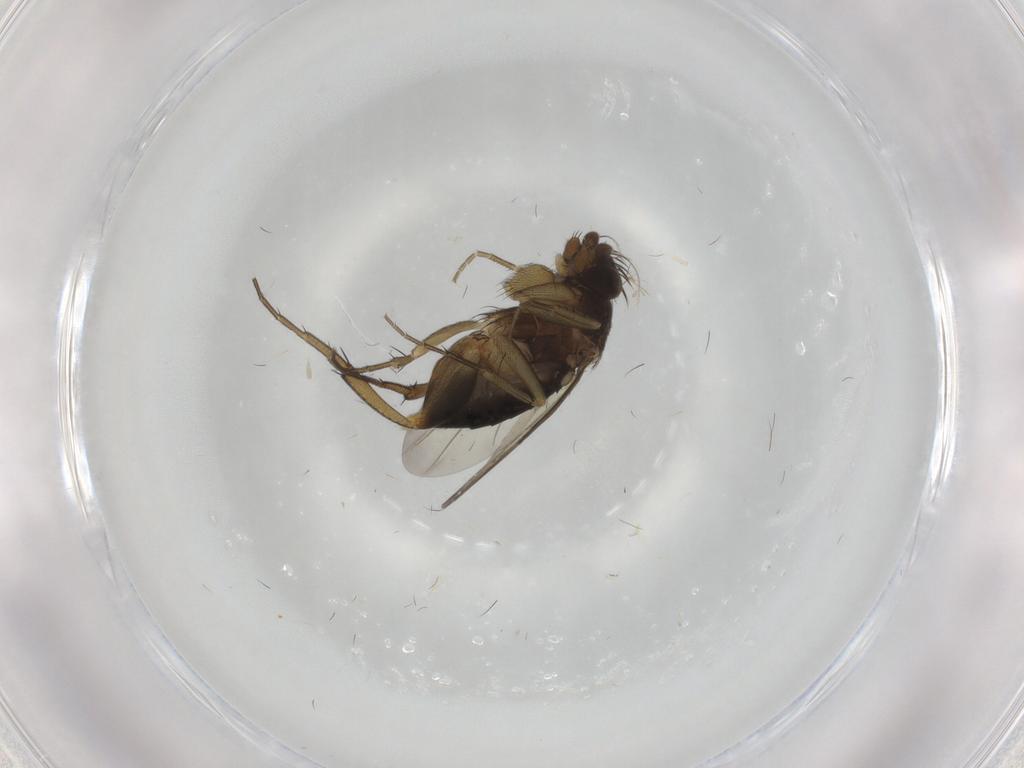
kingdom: Animalia
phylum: Arthropoda
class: Insecta
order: Diptera
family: Phoridae
